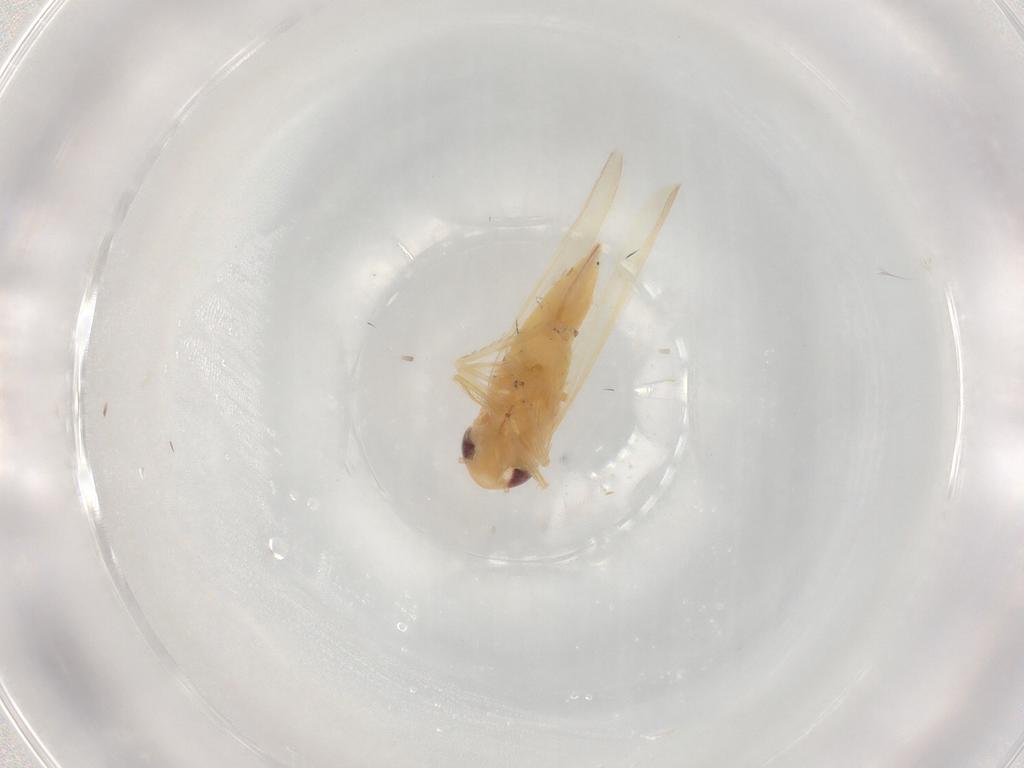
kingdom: Animalia
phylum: Arthropoda
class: Insecta
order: Hemiptera
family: Cicadellidae
